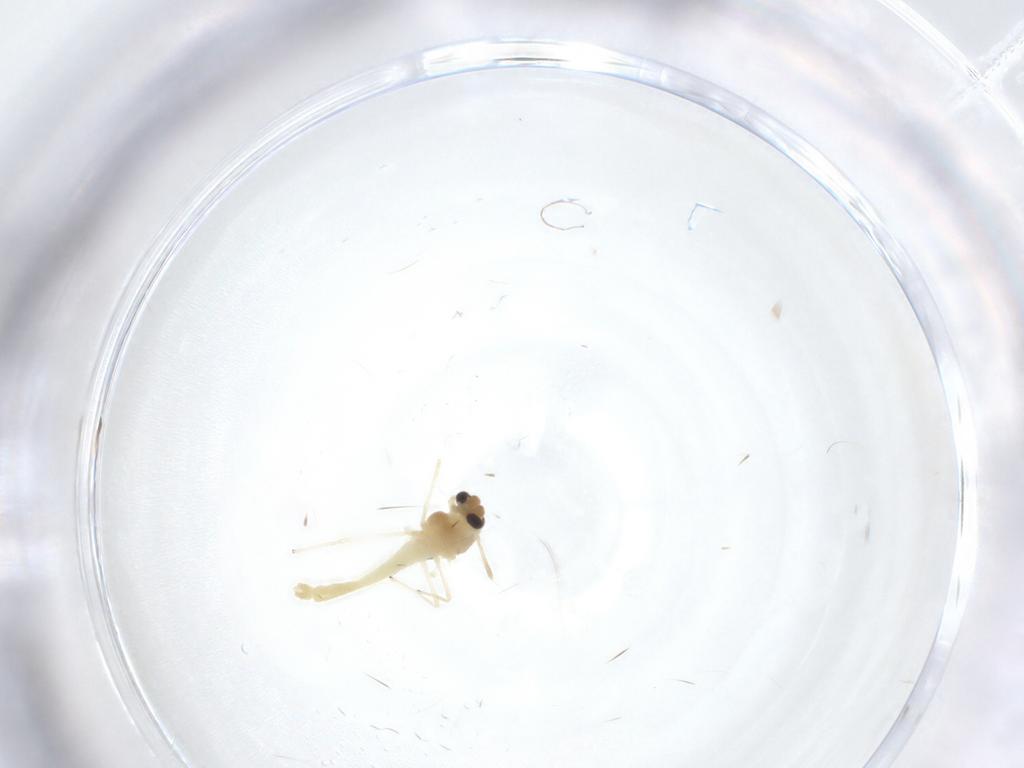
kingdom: Animalia
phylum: Arthropoda
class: Insecta
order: Diptera
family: Chironomidae
